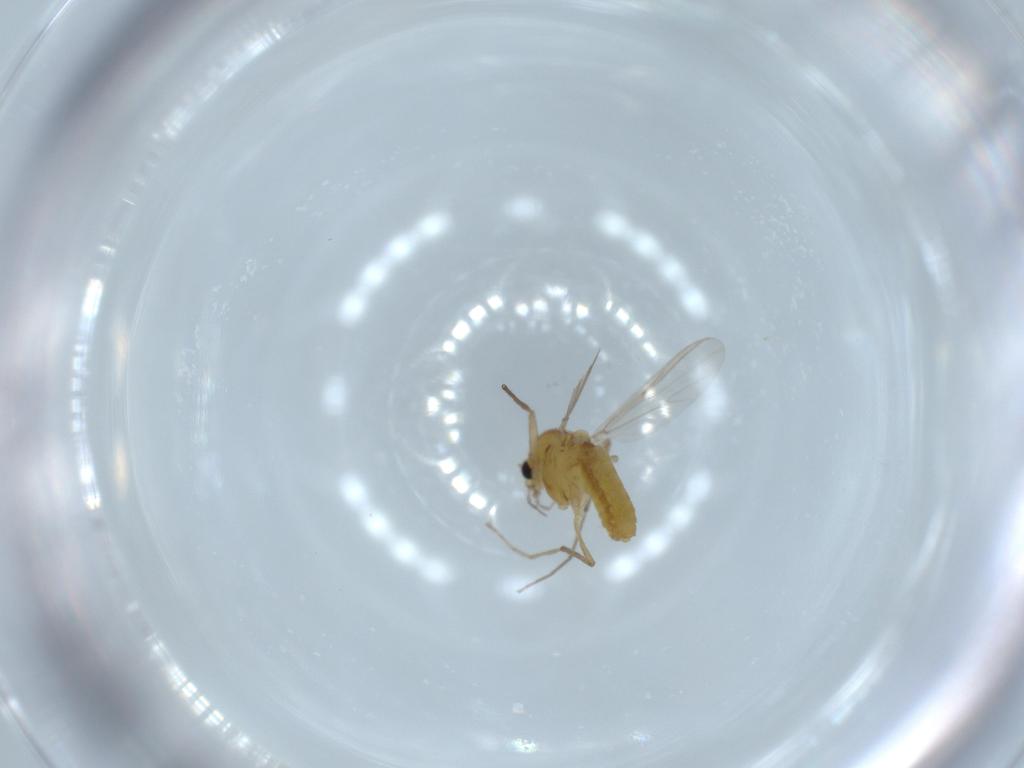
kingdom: Animalia
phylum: Arthropoda
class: Insecta
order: Diptera
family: Chironomidae
